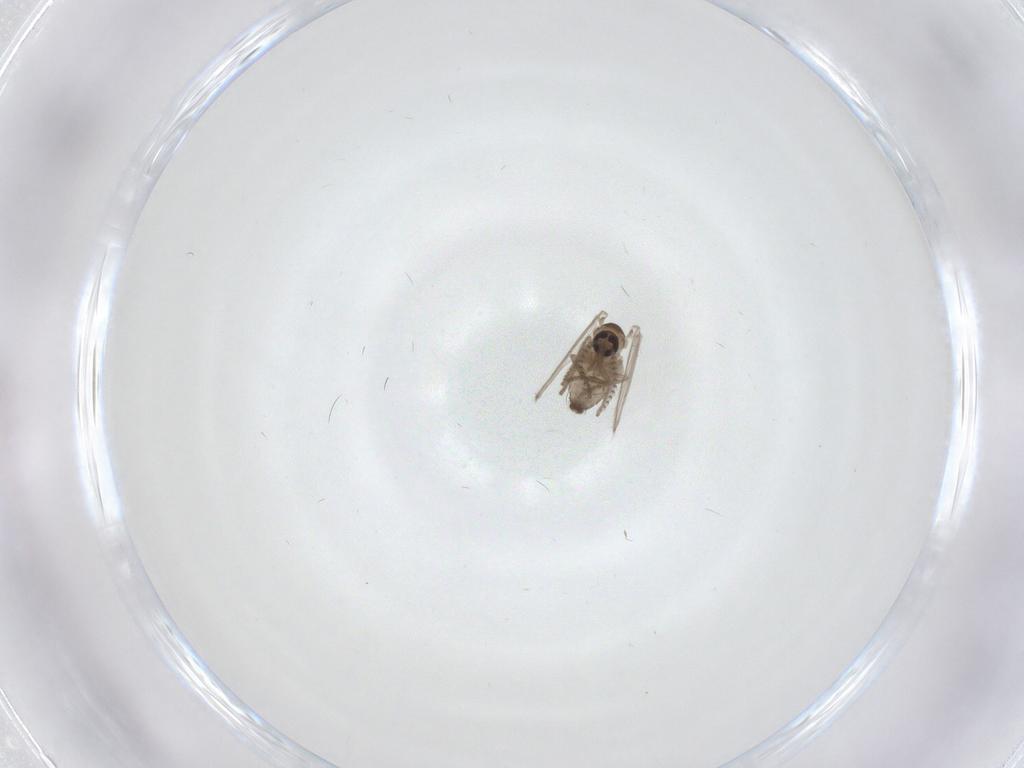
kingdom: Animalia
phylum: Arthropoda
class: Insecta
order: Diptera
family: Psychodidae
